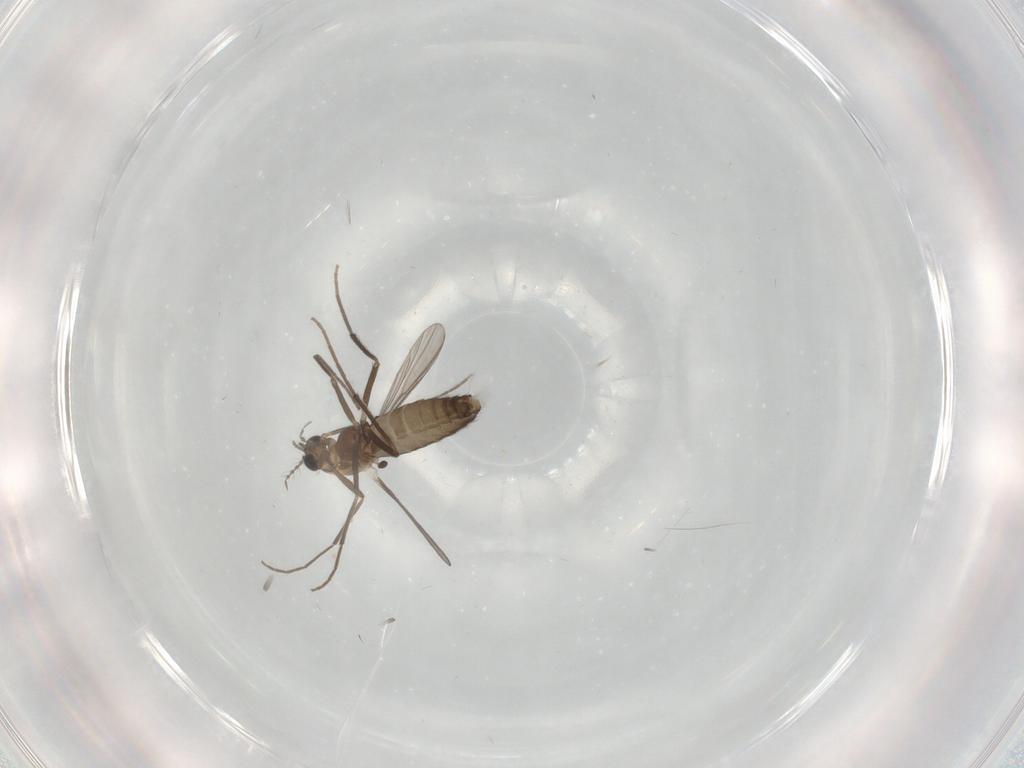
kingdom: Animalia
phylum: Arthropoda
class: Insecta
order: Diptera
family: Chironomidae
